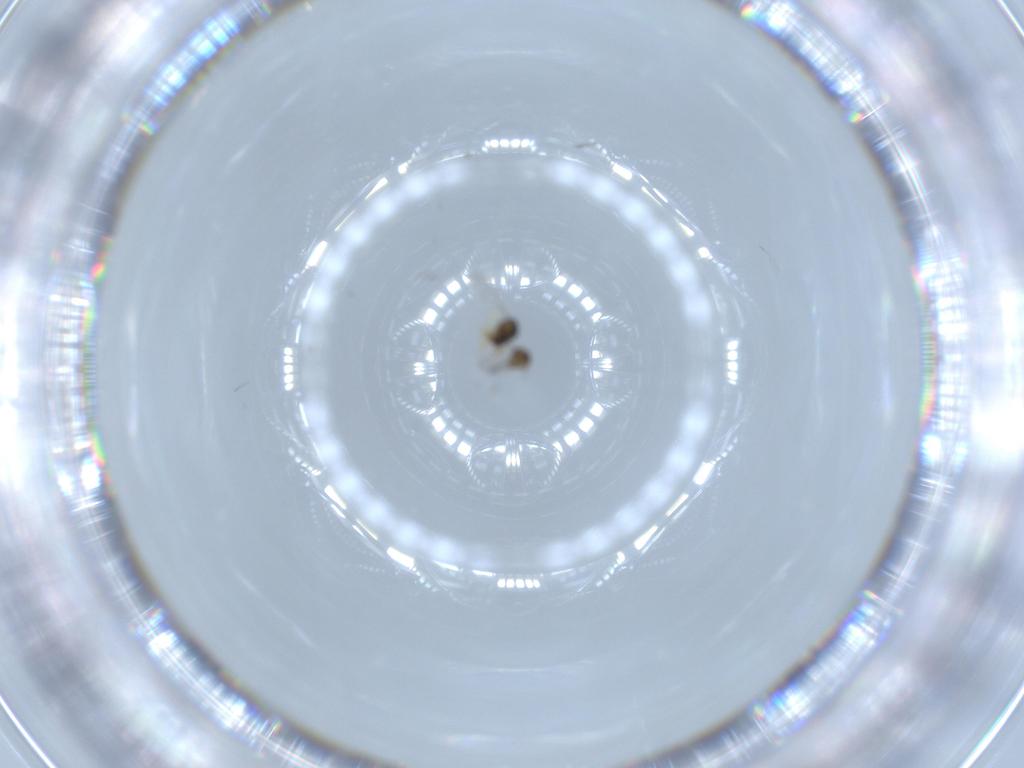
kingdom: Animalia
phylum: Arthropoda
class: Insecta
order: Hymenoptera
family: Encyrtidae
